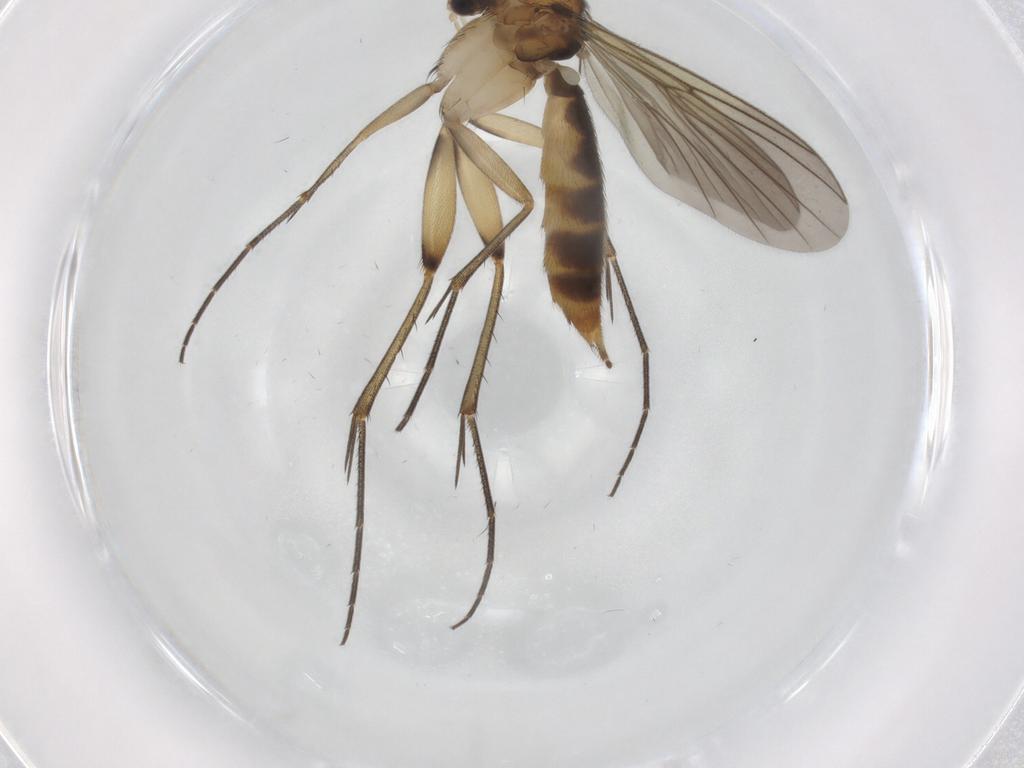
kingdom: Animalia
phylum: Arthropoda
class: Insecta
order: Diptera
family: Mycetophilidae
